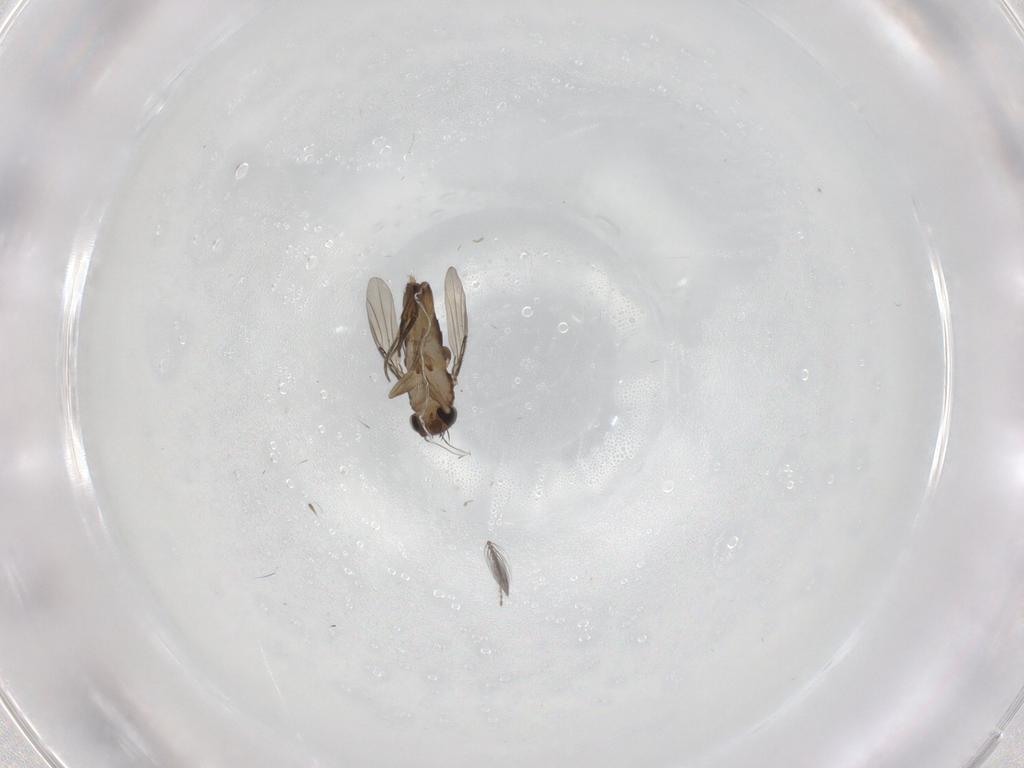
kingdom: Animalia
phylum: Arthropoda
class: Insecta
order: Diptera
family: Phoridae
